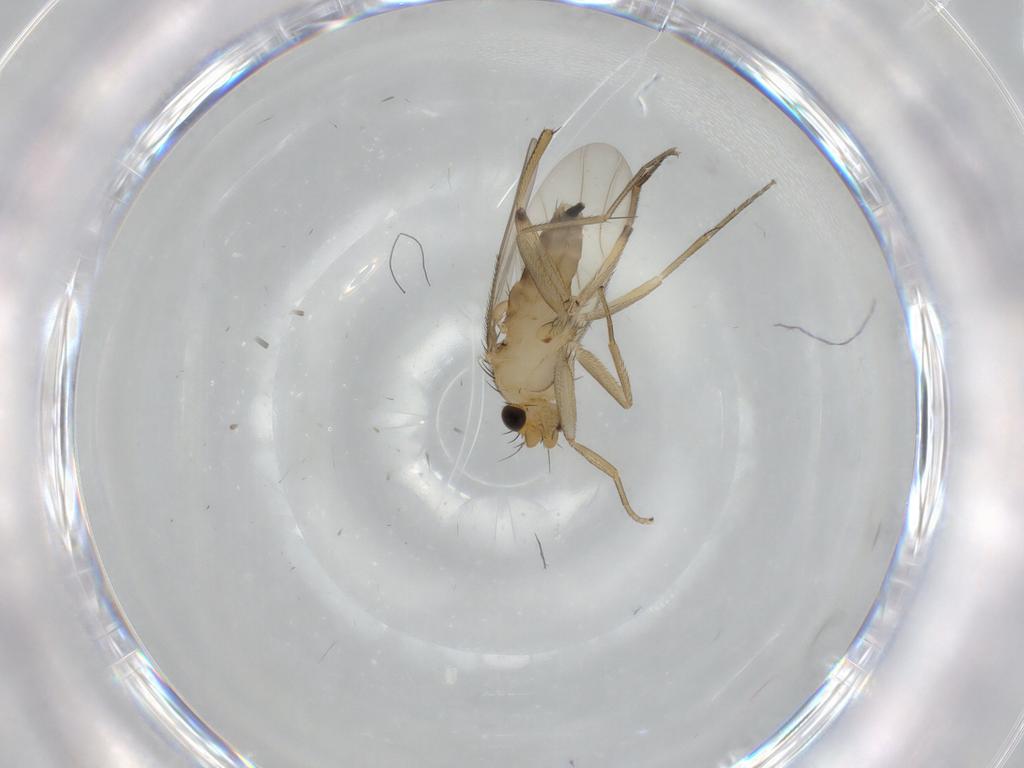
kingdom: Animalia
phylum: Arthropoda
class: Insecta
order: Diptera
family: Phoridae
